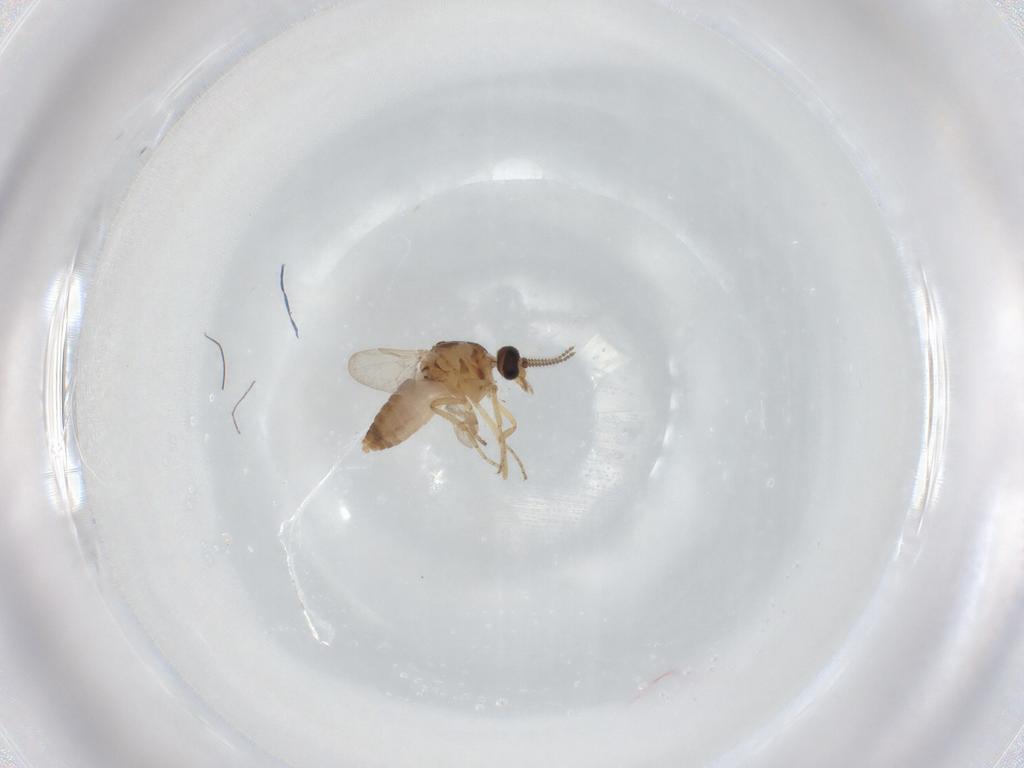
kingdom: Animalia
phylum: Arthropoda
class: Insecta
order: Diptera
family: Ceratopogonidae
